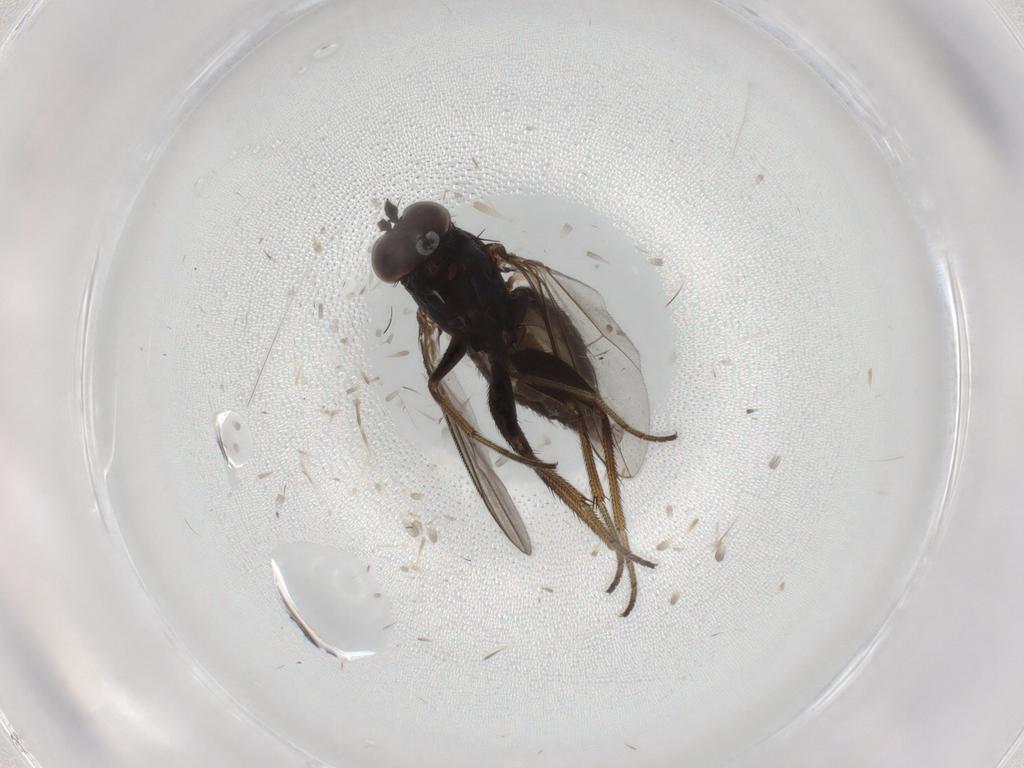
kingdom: Animalia
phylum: Arthropoda
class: Insecta
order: Diptera
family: Dolichopodidae
